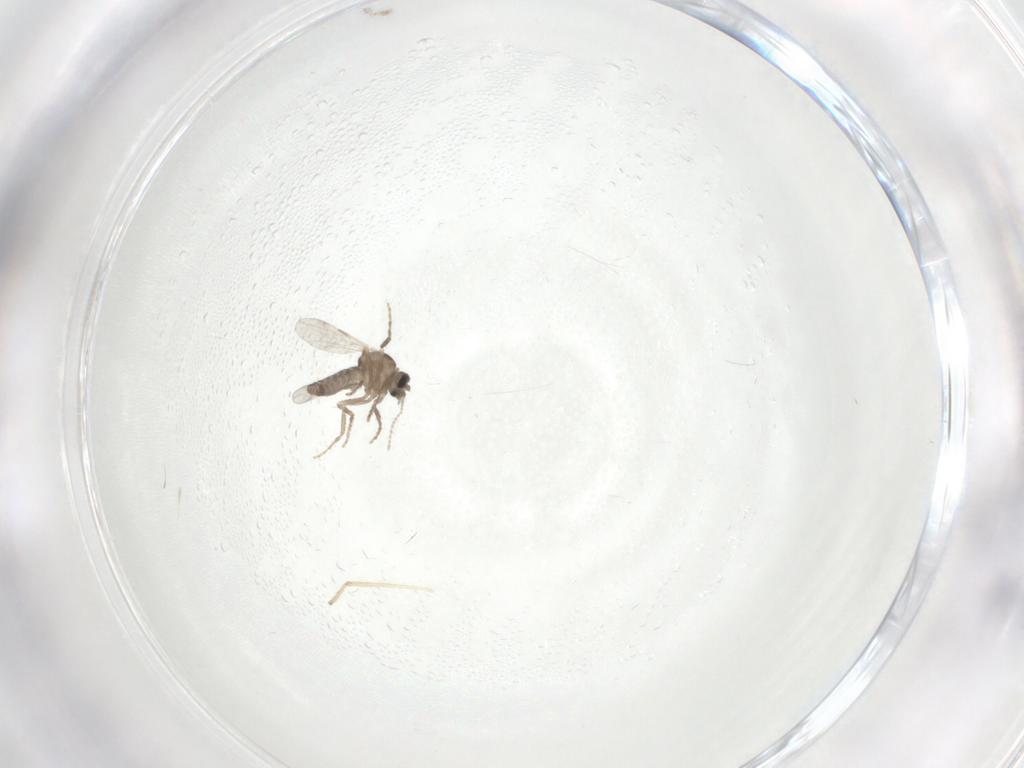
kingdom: Animalia
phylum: Arthropoda
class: Insecta
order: Diptera
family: Ceratopogonidae
